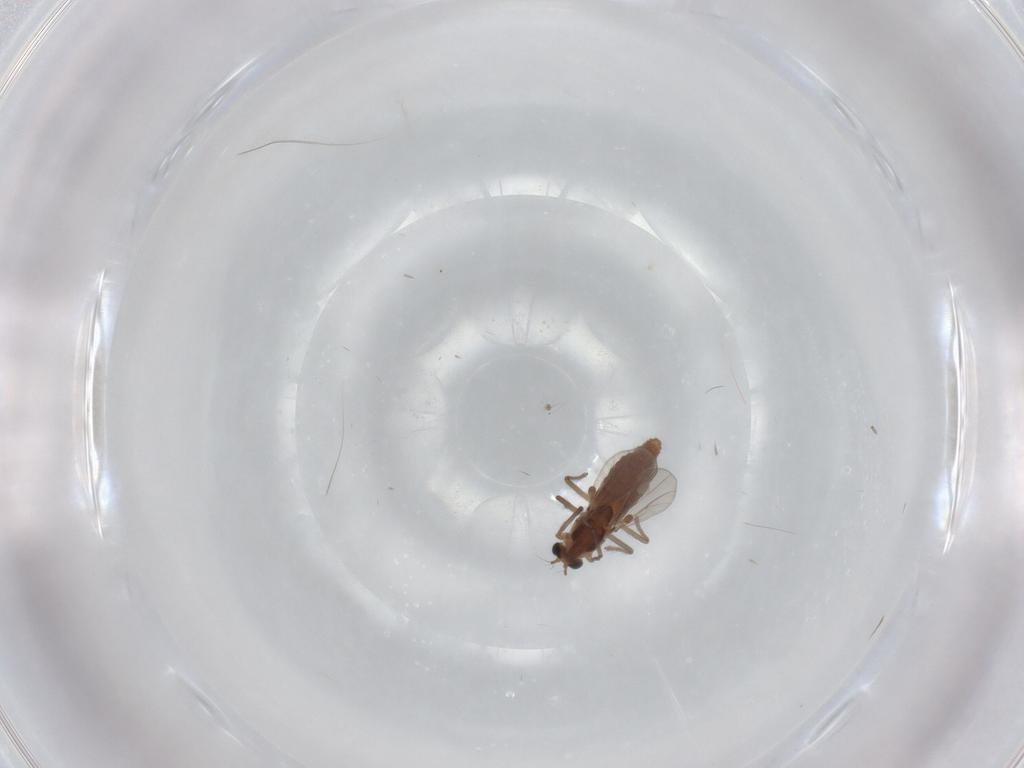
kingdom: Animalia
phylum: Arthropoda
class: Insecta
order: Diptera
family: Chironomidae
